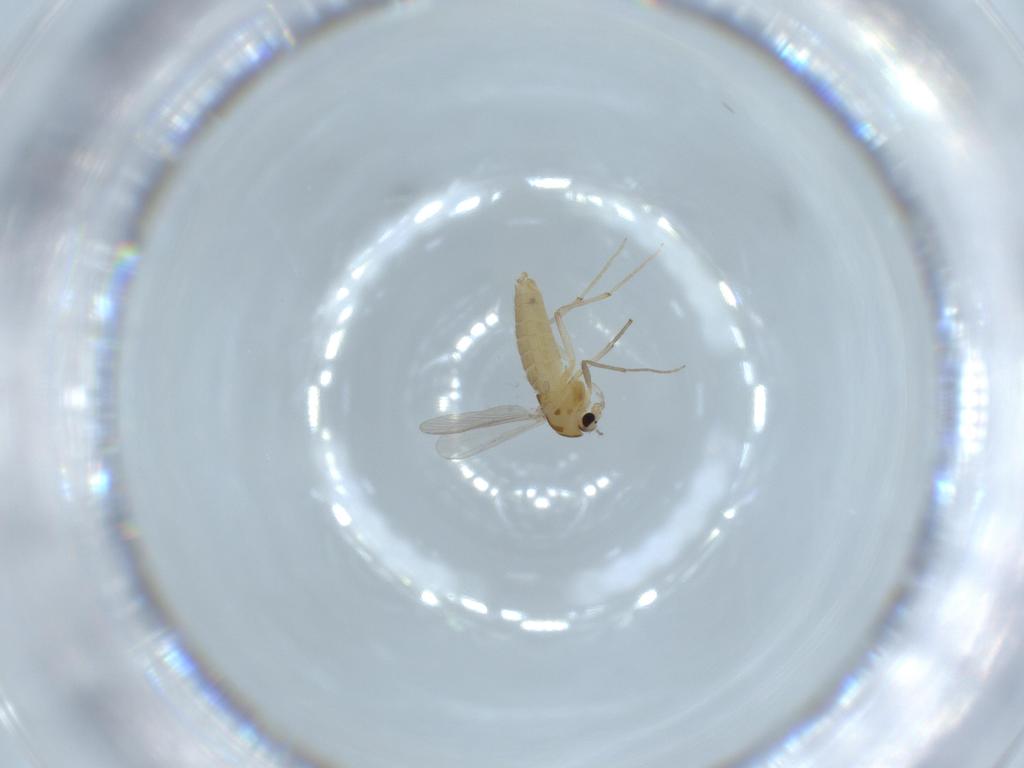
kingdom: Animalia
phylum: Arthropoda
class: Insecta
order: Diptera
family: Chironomidae
